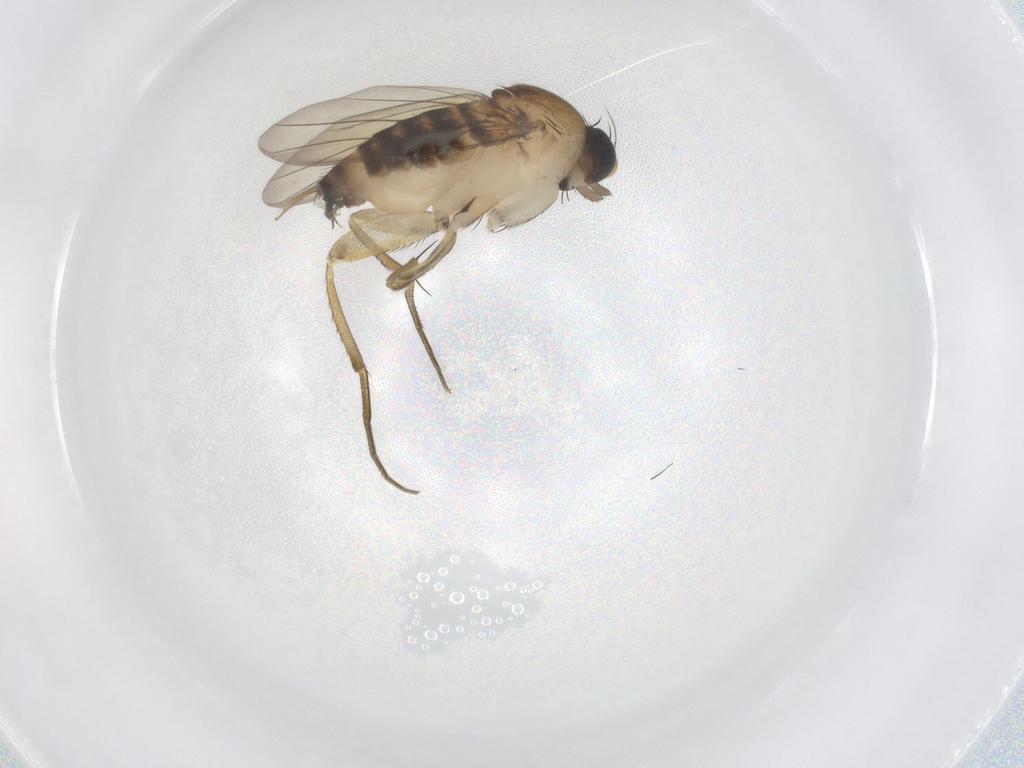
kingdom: Animalia
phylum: Arthropoda
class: Insecta
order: Diptera
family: Phoridae
